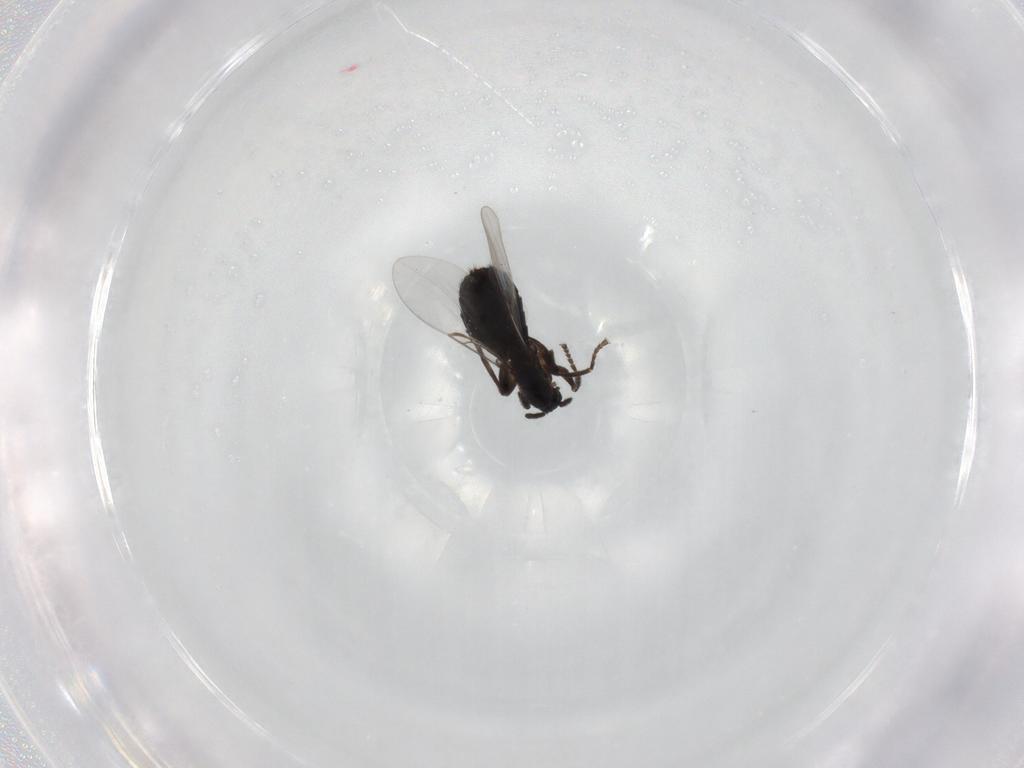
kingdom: Animalia
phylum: Arthropoda
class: Insecta
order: Diptera
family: Scatopsidae
